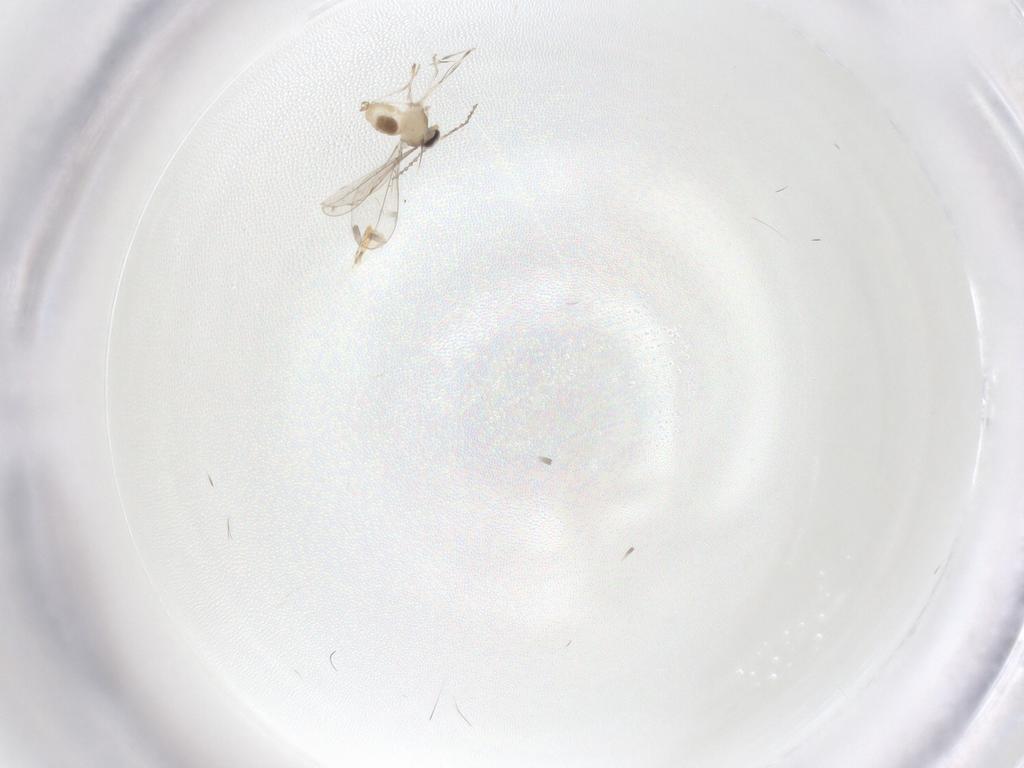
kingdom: Animalia
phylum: Arthropoda
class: Insecta
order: Diptera
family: Cecidomyiidae
